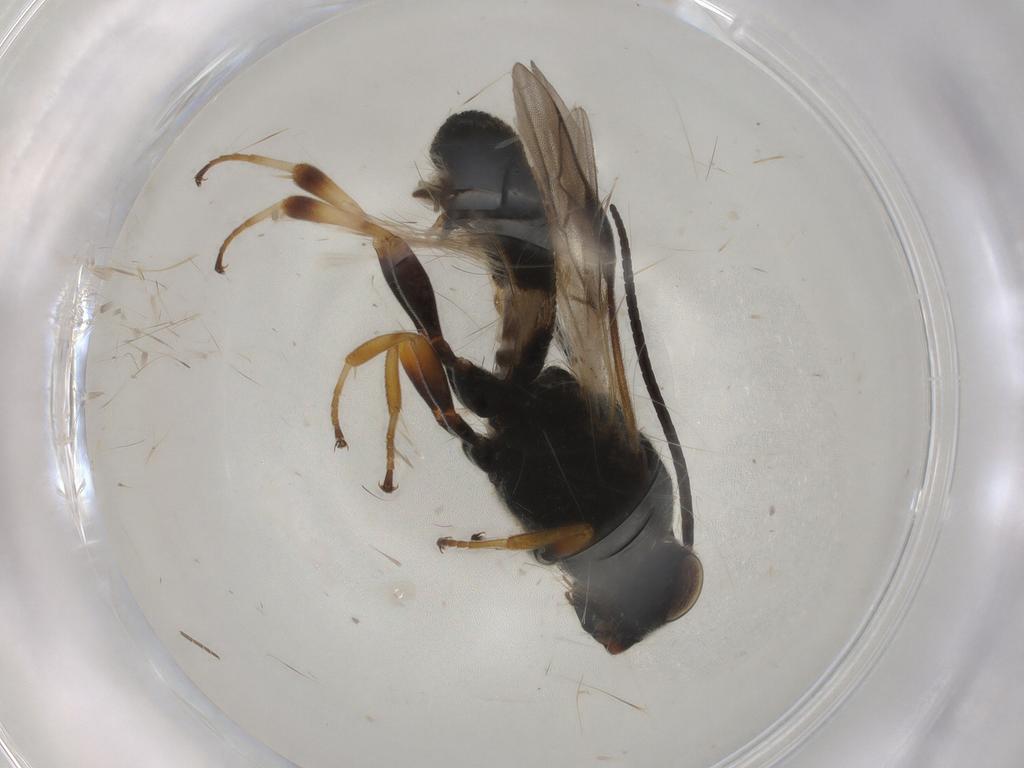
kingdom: Animalia
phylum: Arthropoda
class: Insecta
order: Hymenoptera
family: Braconidae
